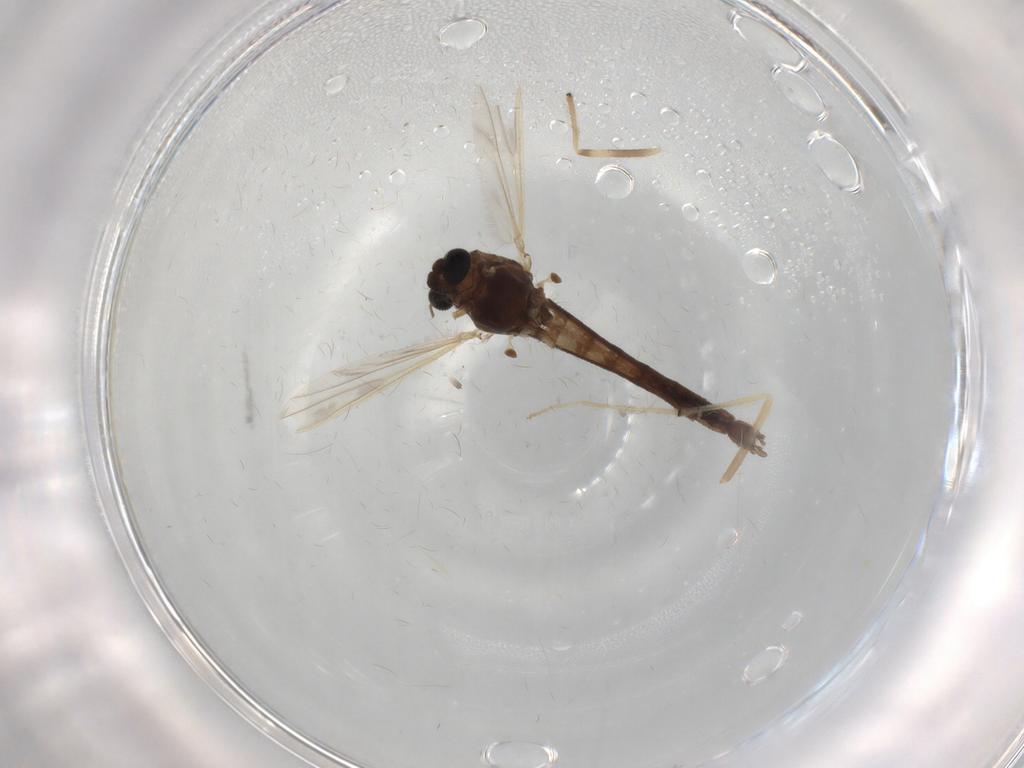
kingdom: Animalia
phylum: Arthropoda
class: Insecta
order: Diptera
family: Chironomidae
